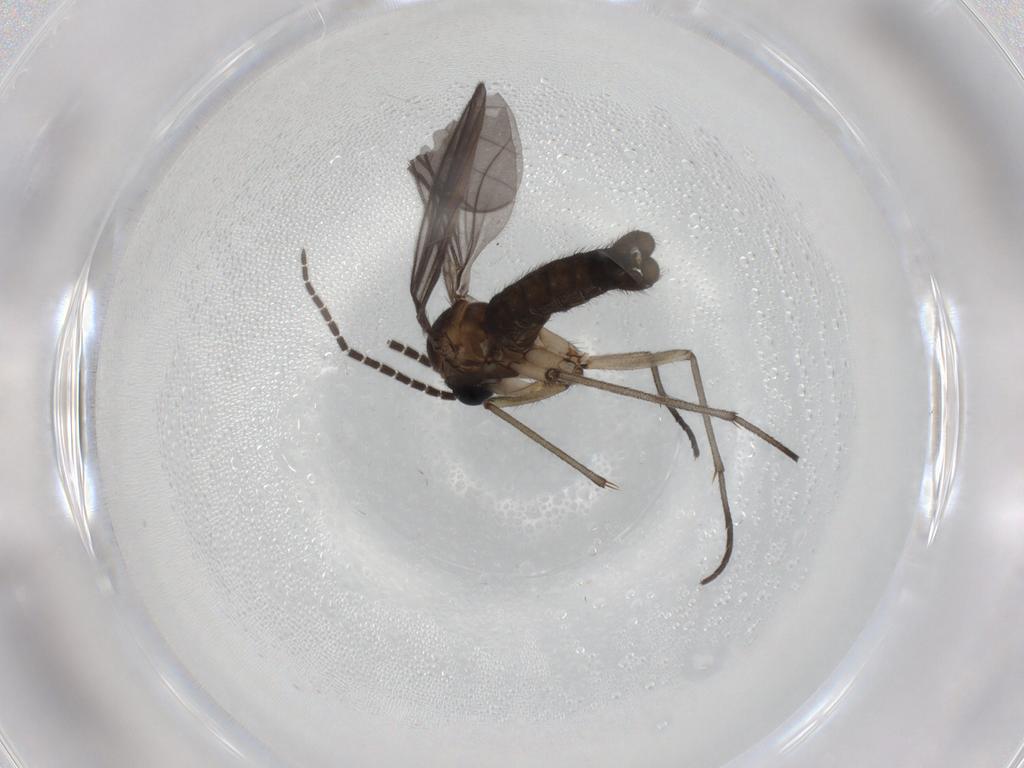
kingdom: Animalia
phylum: Arthropoda
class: Insecta
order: Diptera
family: Sciaridae
